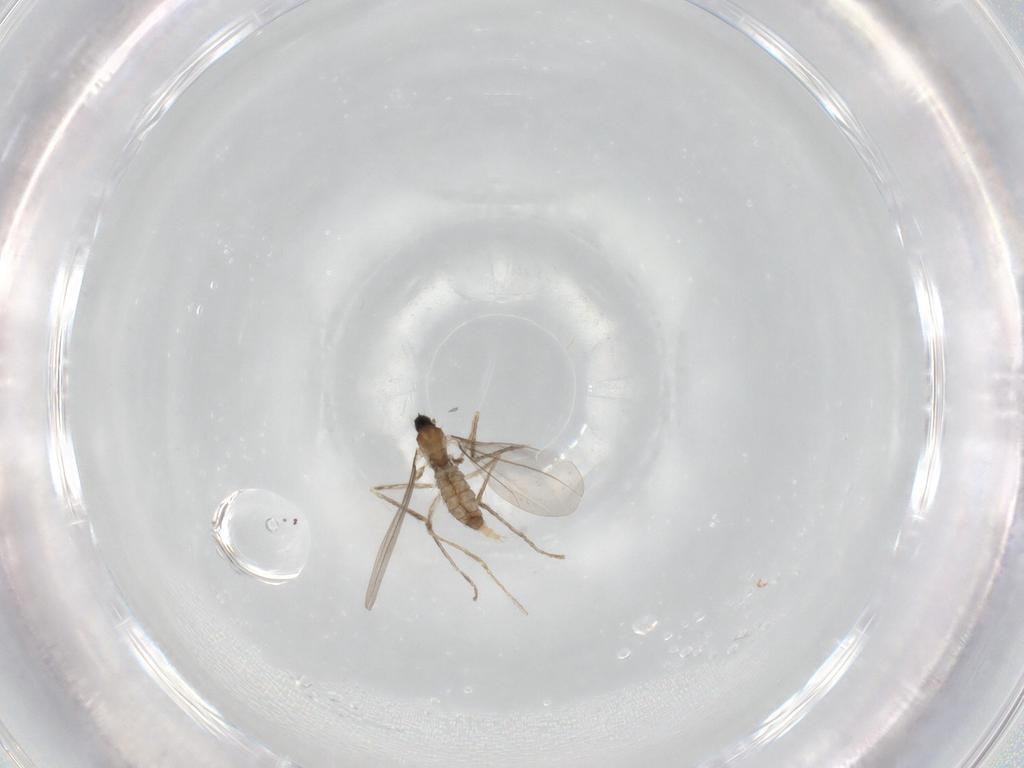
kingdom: Animalia
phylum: Arthropoda
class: Insecta
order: Diptera
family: Cecidomyiidae
